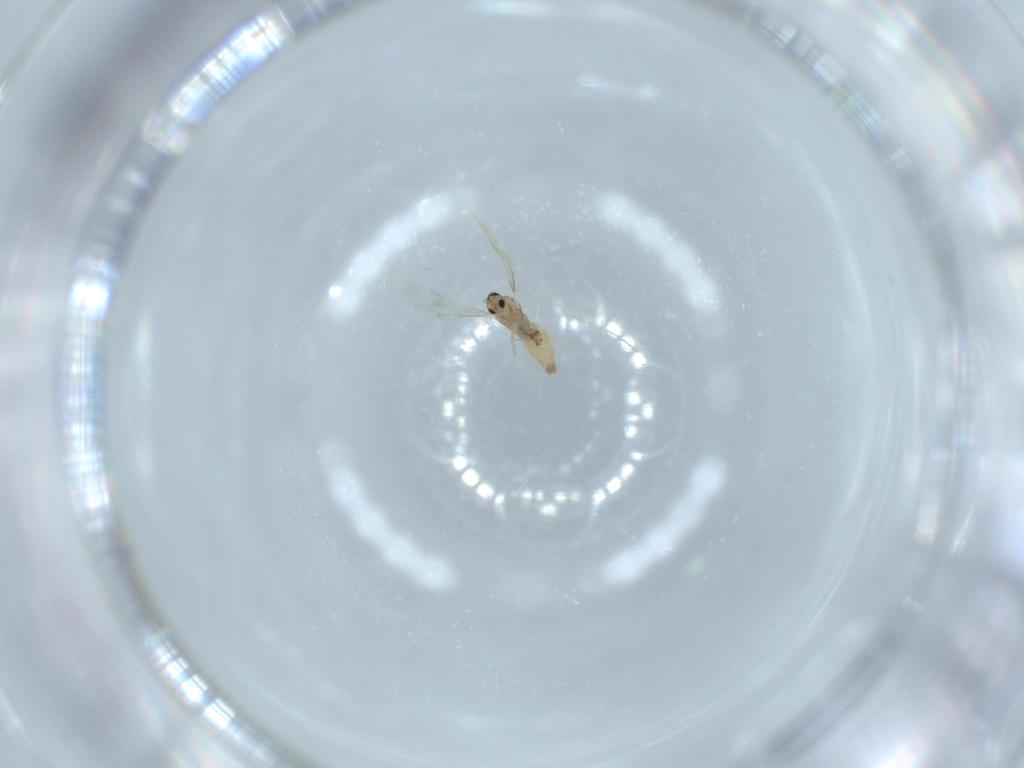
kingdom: Animalia
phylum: Arthropoda
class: Insecta
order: Diptera
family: Cecidomyiidae
